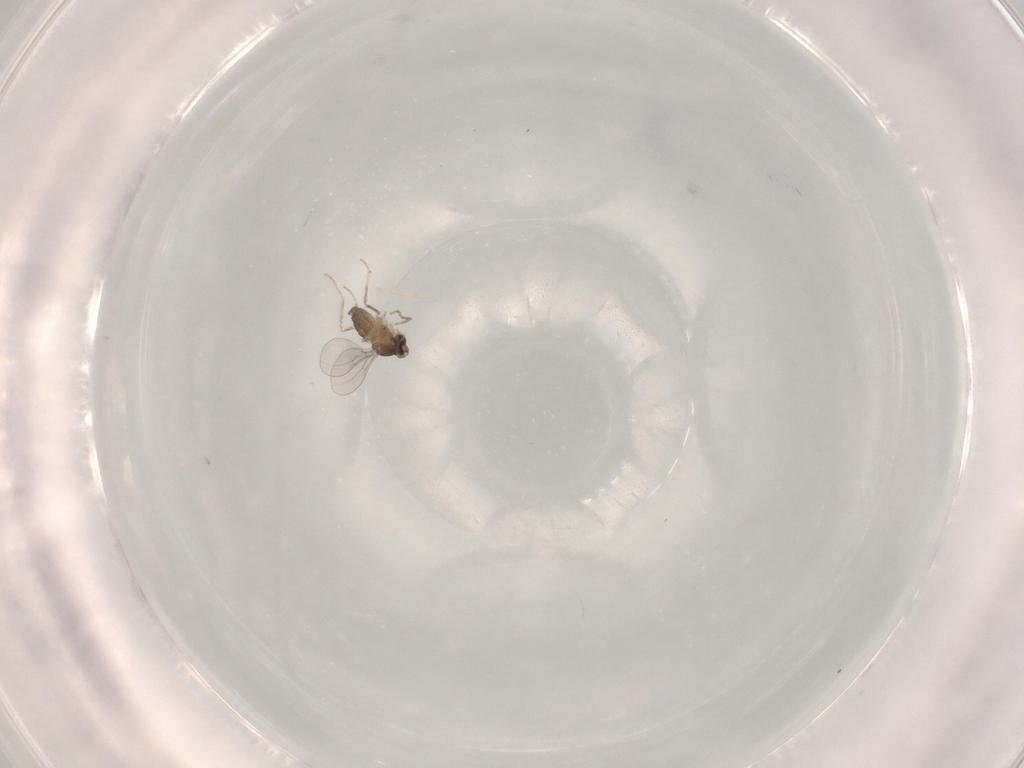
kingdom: Animalia
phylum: Arthropoda
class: Insecta
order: Diptera
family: Cecidomyiidae
